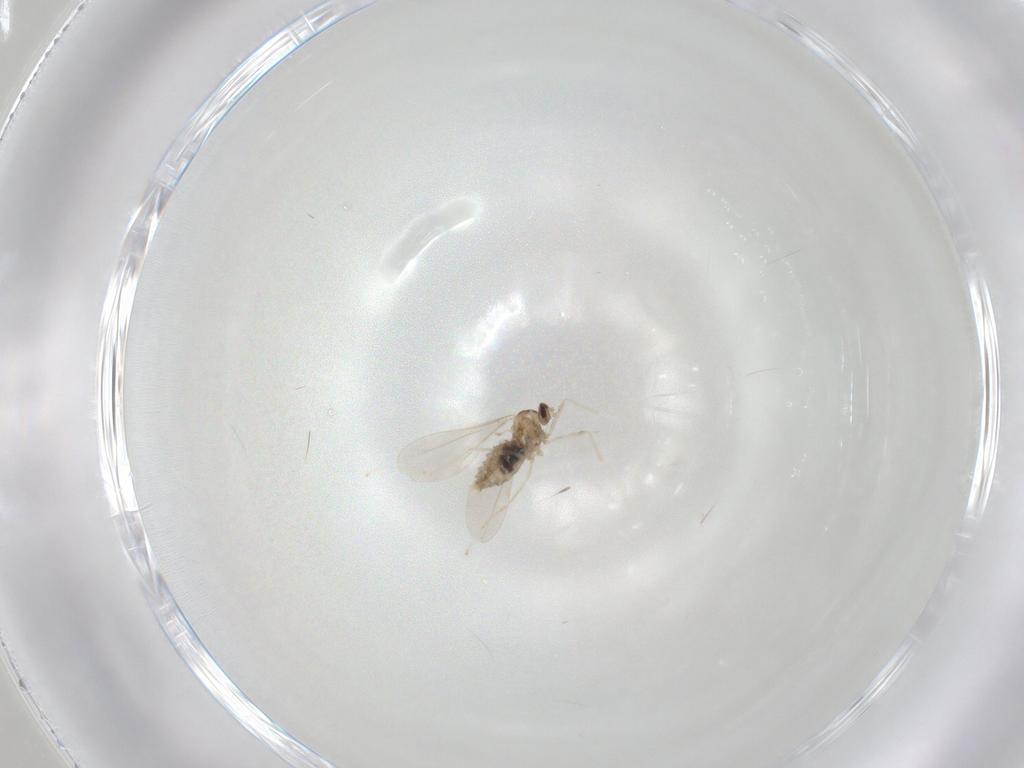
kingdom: Animalia
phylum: Arthropoda
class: Insecta
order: Diptera
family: Cecidomyiidae
